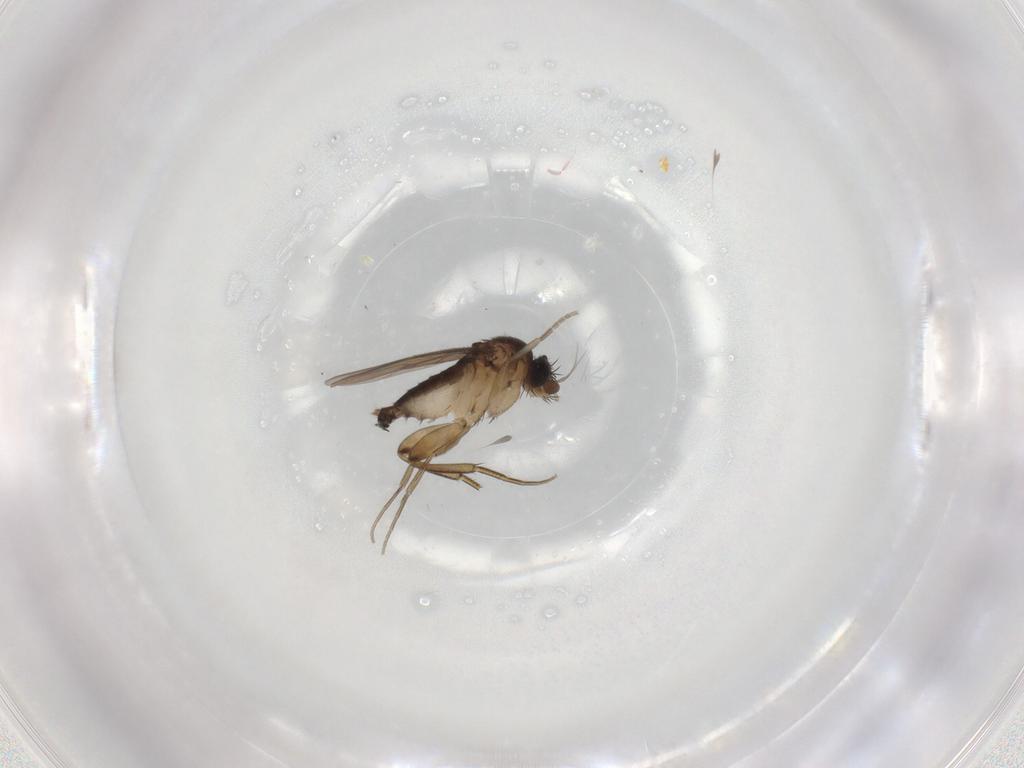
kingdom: Animalia
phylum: Arthropoda
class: Insecta
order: Diptera
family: Phoridae
